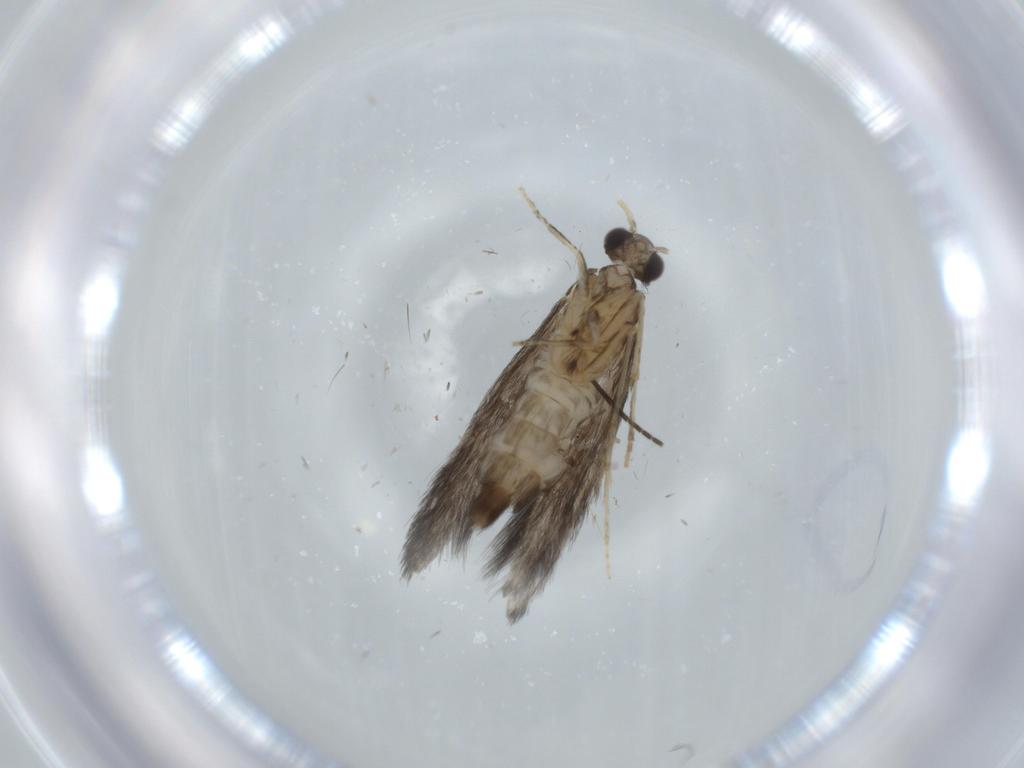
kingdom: Animalia
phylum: Arthropoda
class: Insecta
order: Trichoptera
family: Hydroptilidae
